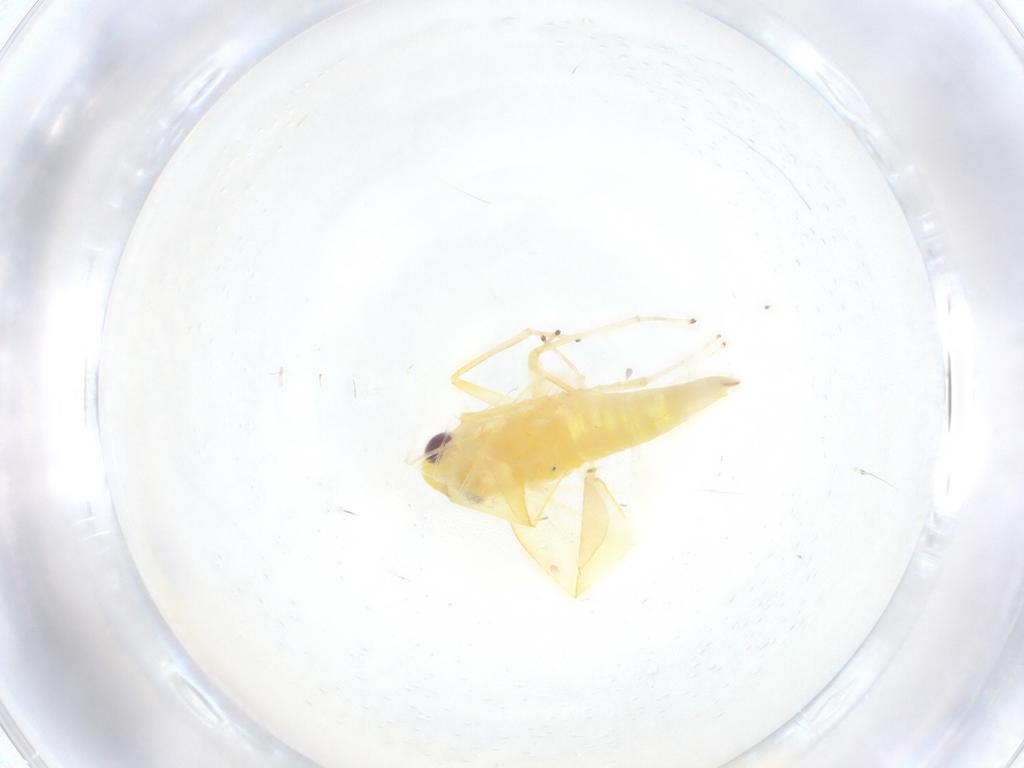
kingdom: Animalia
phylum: Arthropoda
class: Insecta
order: Hemiptera
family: Cicadellidae
